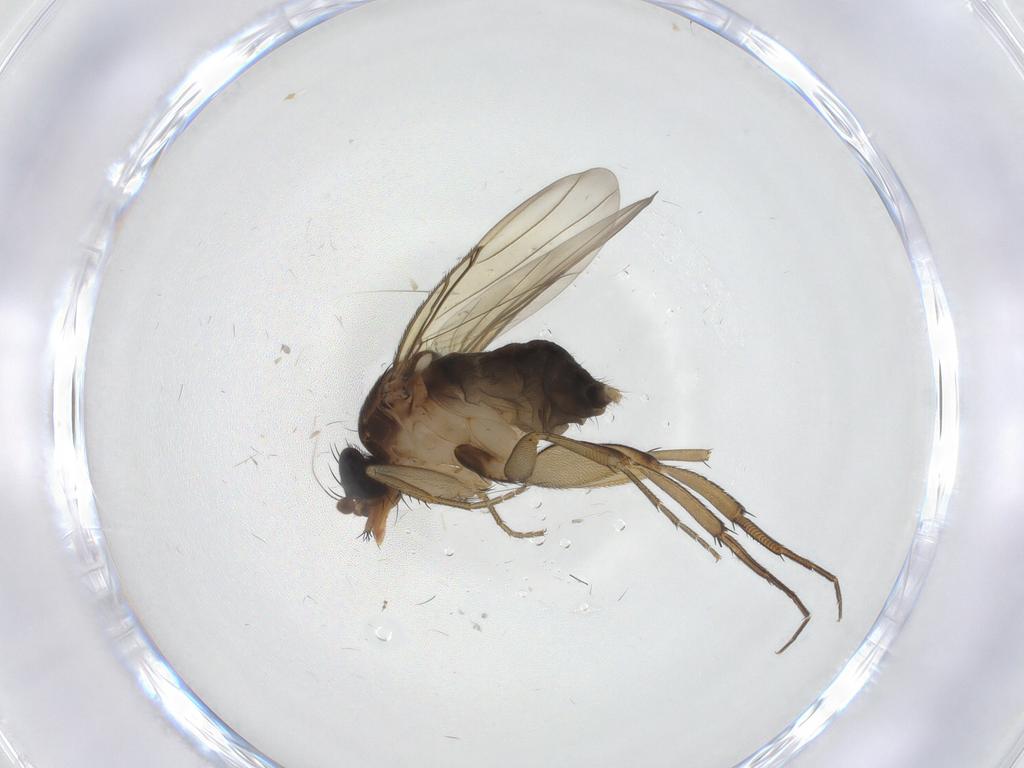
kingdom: Animalia
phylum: Arthropoda
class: Insecta
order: Diptera
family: Phoridae
